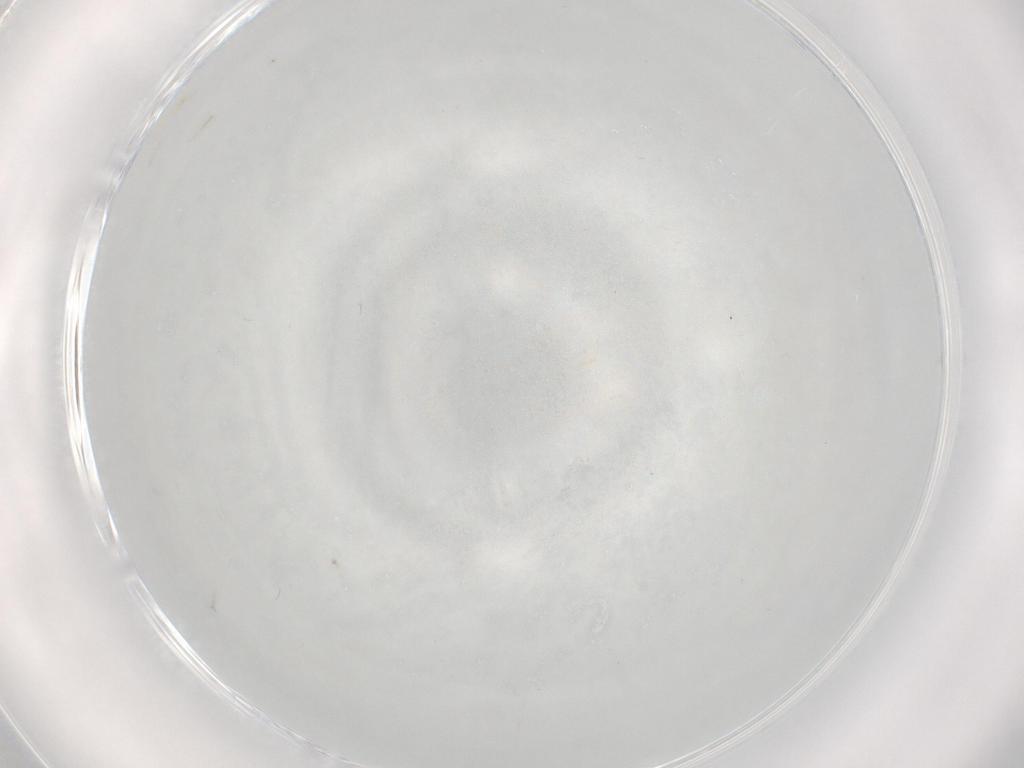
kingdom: Animalia
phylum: Arthropoda
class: Insecta
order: Diptera
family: Cecidomyiidae
